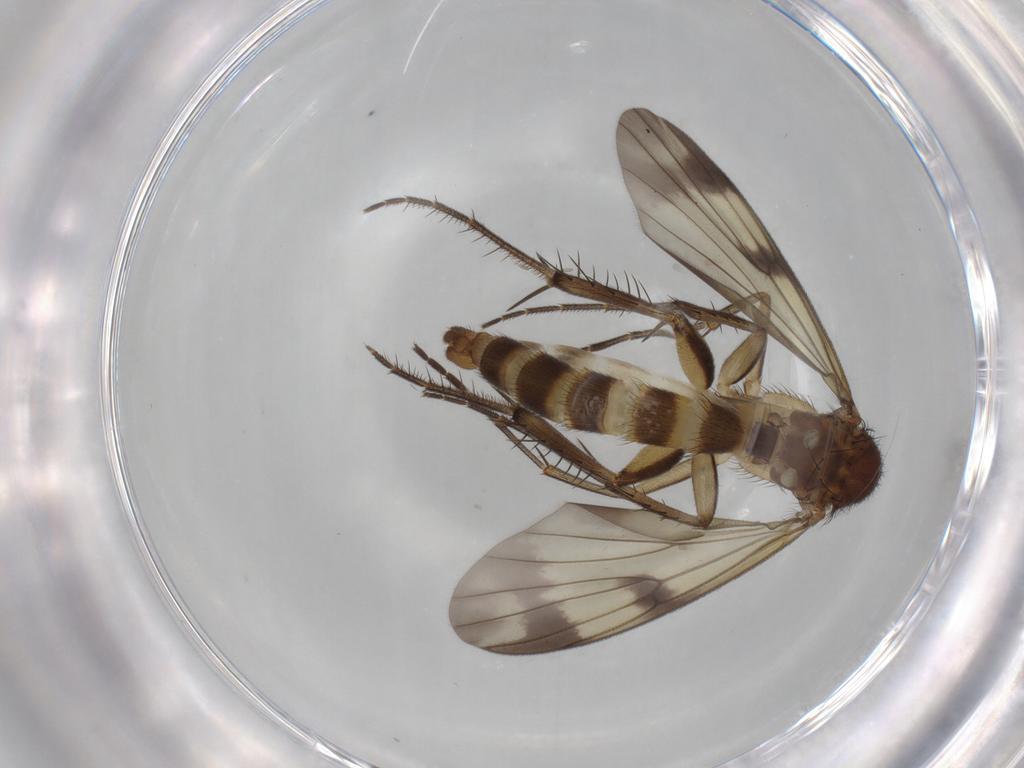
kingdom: Animalia
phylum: Arthropoda
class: Insecta
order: Diptera
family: Mycetophilidae
